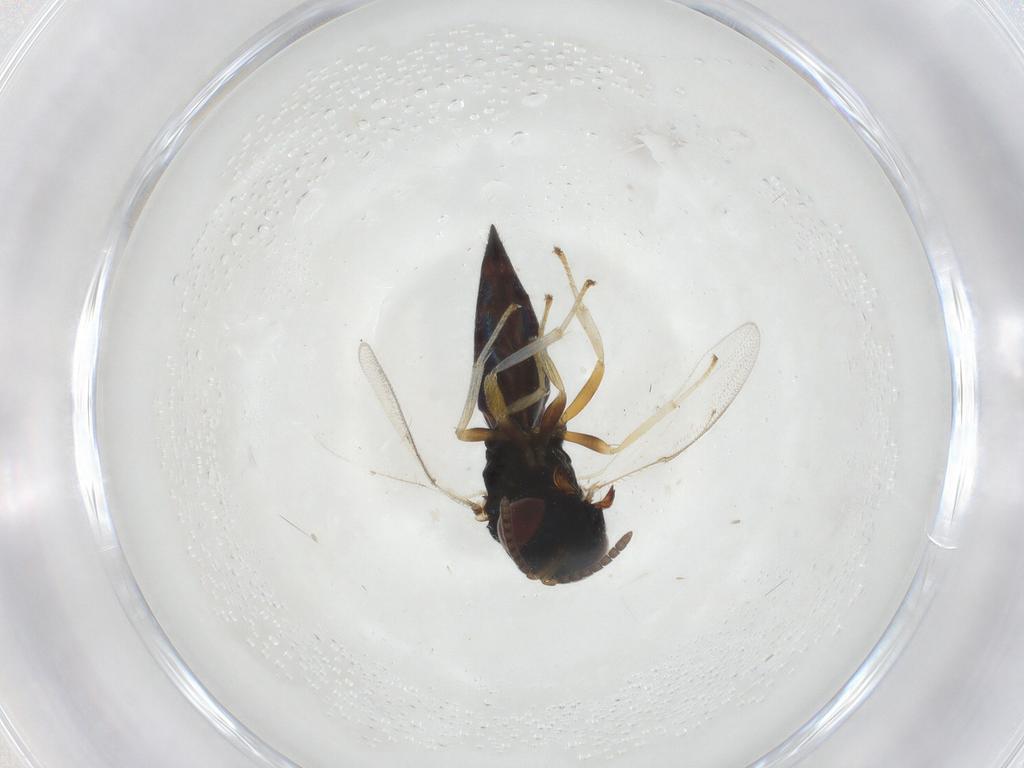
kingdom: Animalia
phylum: Arthropoda
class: Insecta
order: Hymenoptera
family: Pteromalidae
